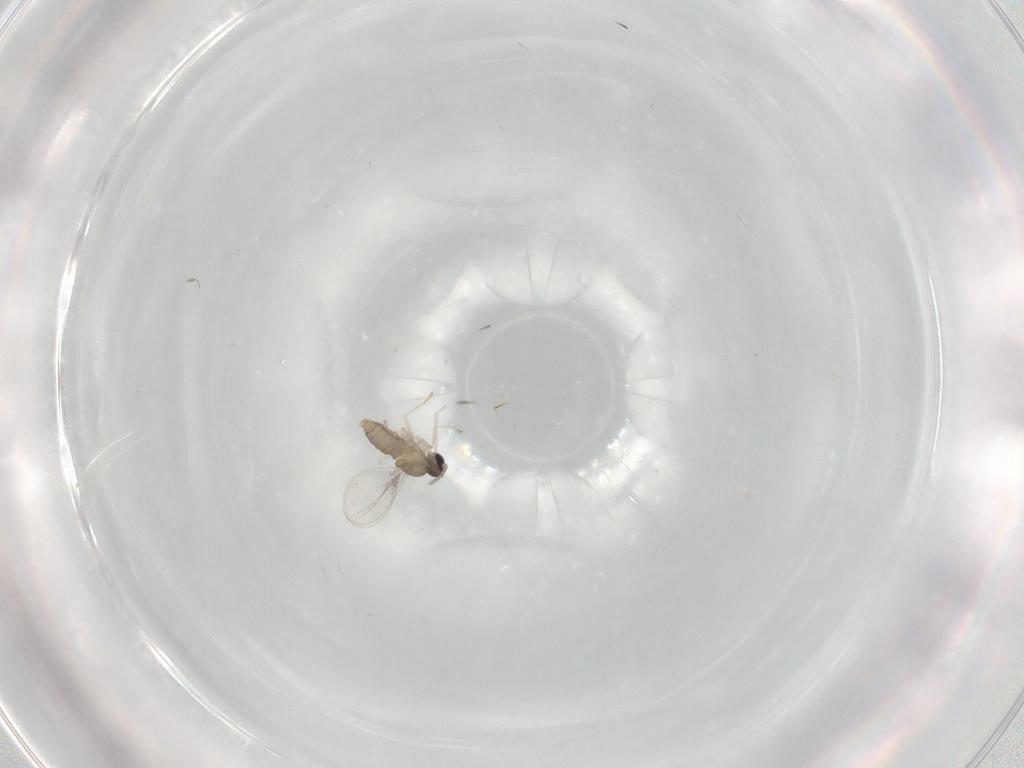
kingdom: Animalia
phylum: Arthropoda
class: Insecta
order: Diptera
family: Cecidomyiidae
